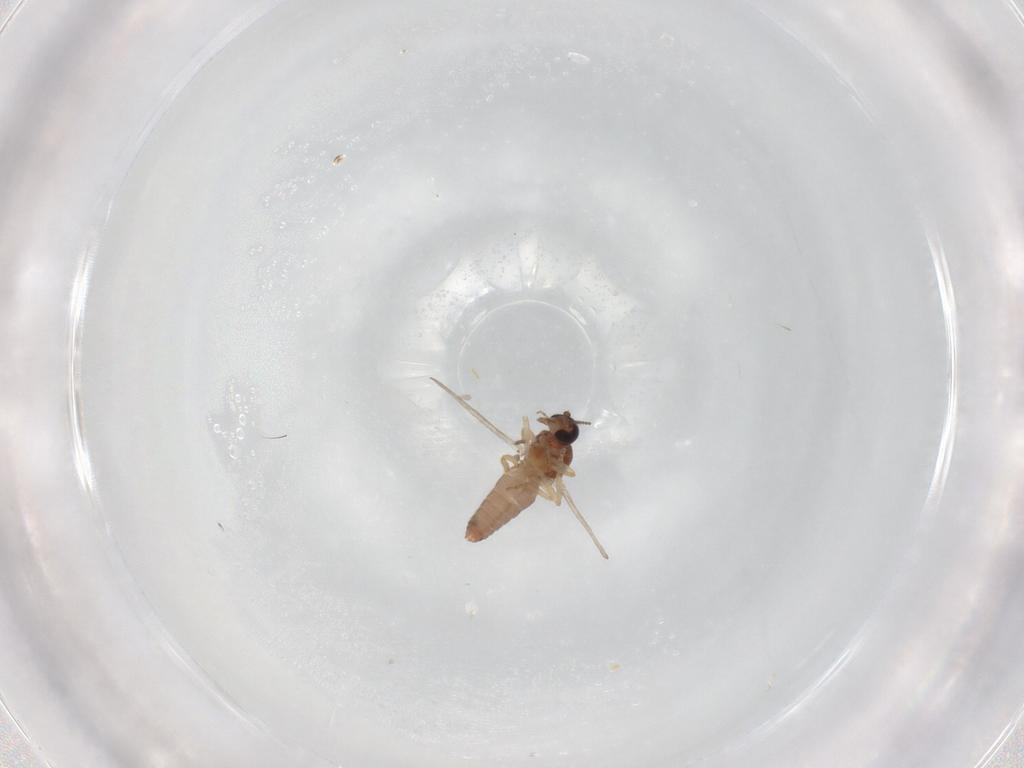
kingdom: Animalia
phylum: Arthropoda
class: Insecta
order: Diptera
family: Ceratopogonidae
